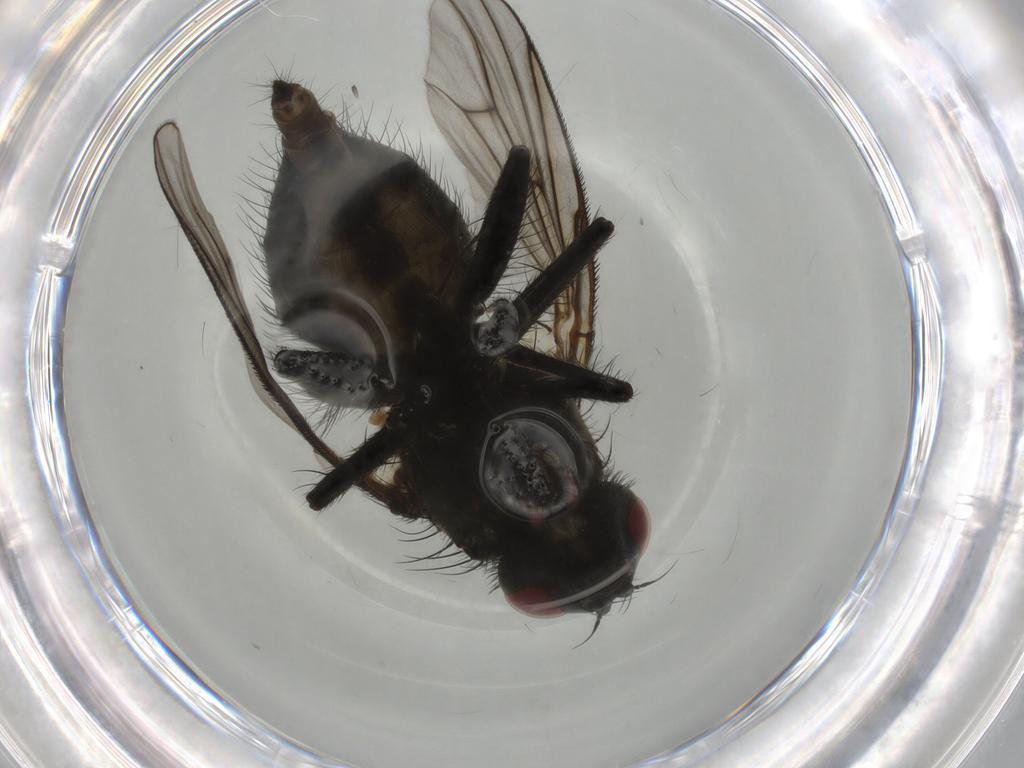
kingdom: Animalia
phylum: Arthropoda
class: Insecta
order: Diptera
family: Muscidae
